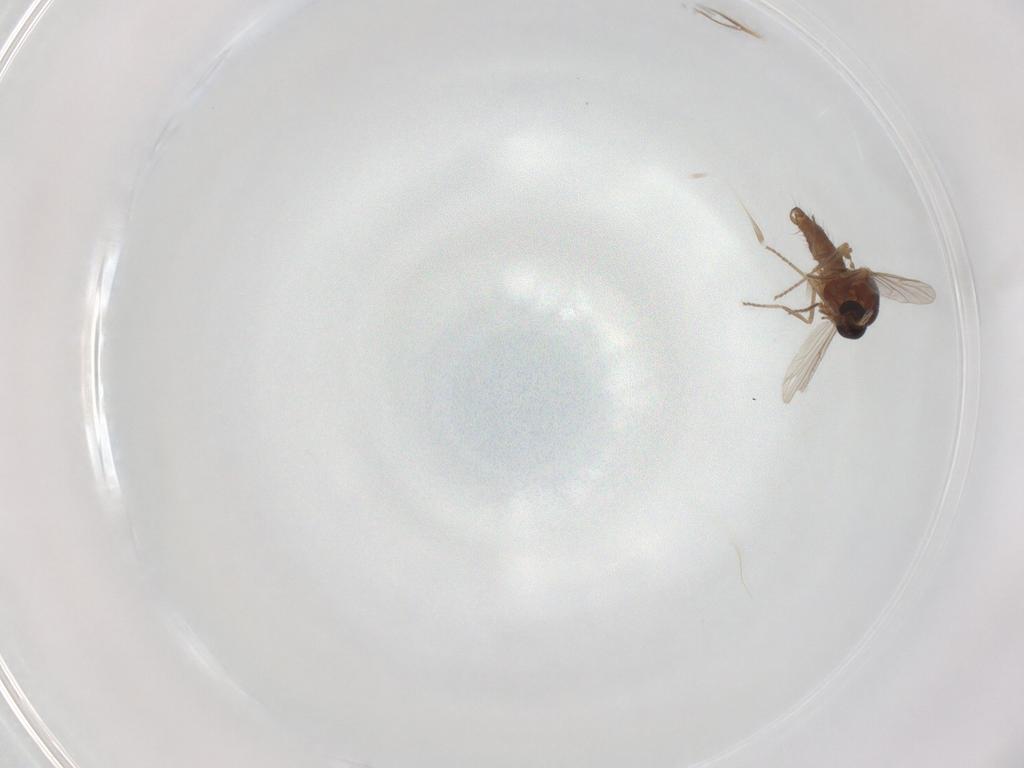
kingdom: Animalia
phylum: Arthropoda
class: Insecta
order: Diptera
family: Ceratopogonidae
